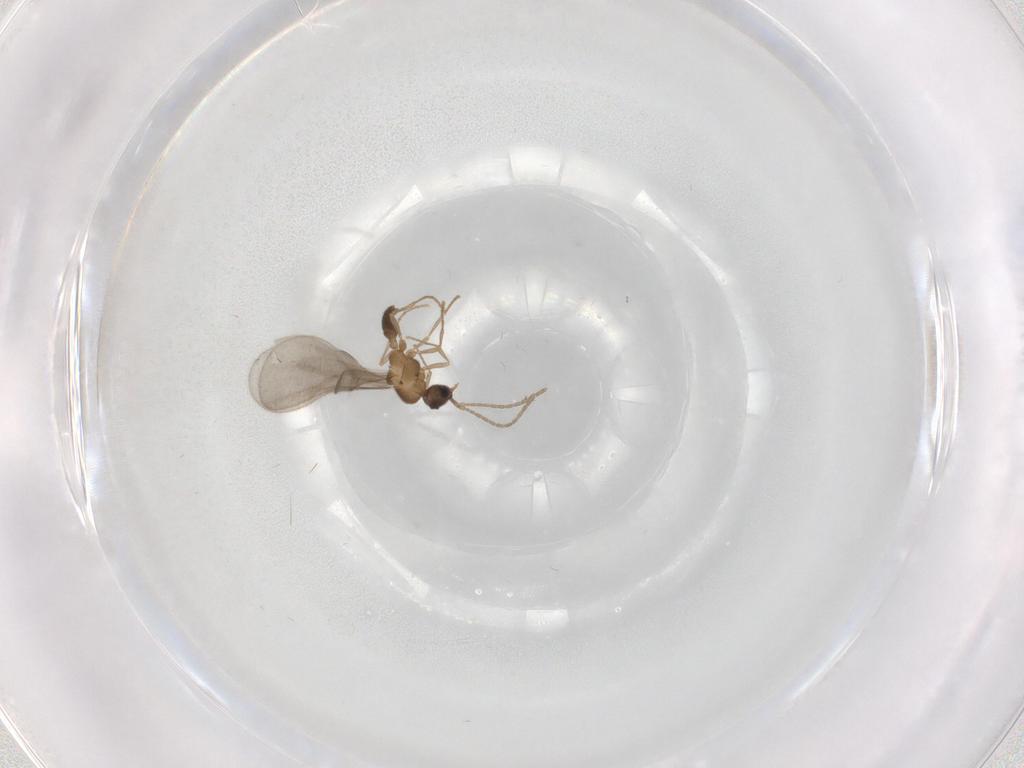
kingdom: Animalia
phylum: Arthropoda
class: Insecta
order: Hymenoptera
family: Formicidae
